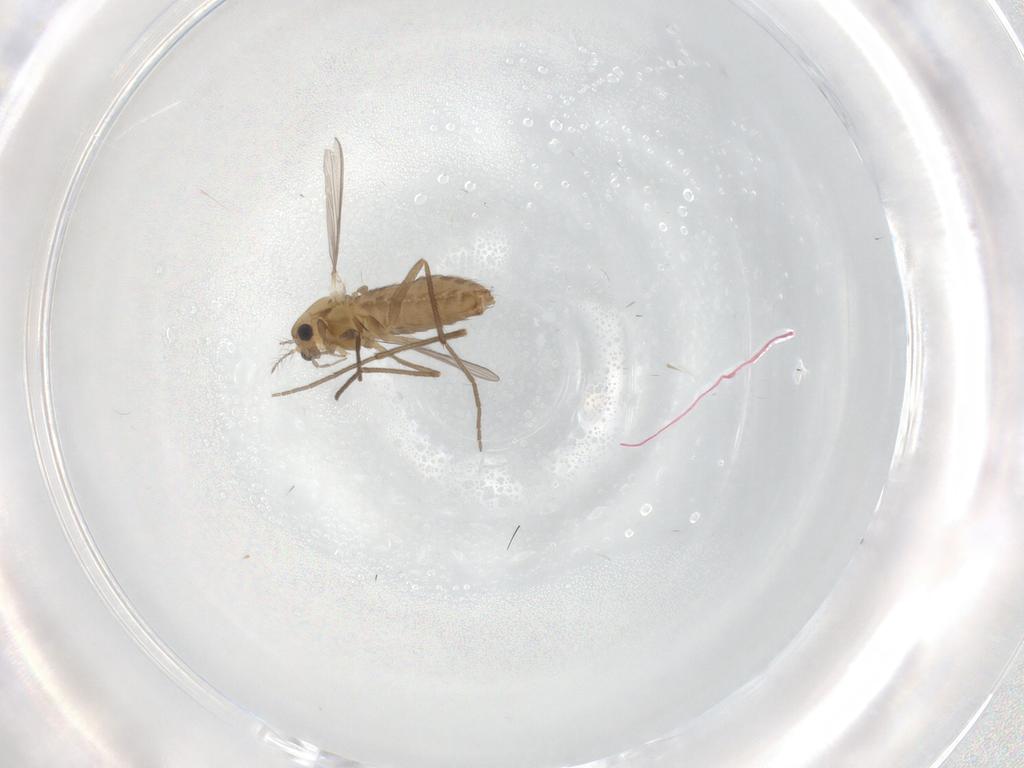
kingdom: Animalia
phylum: Arthropoda
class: Insecta
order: Diptera
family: Chironomidae
